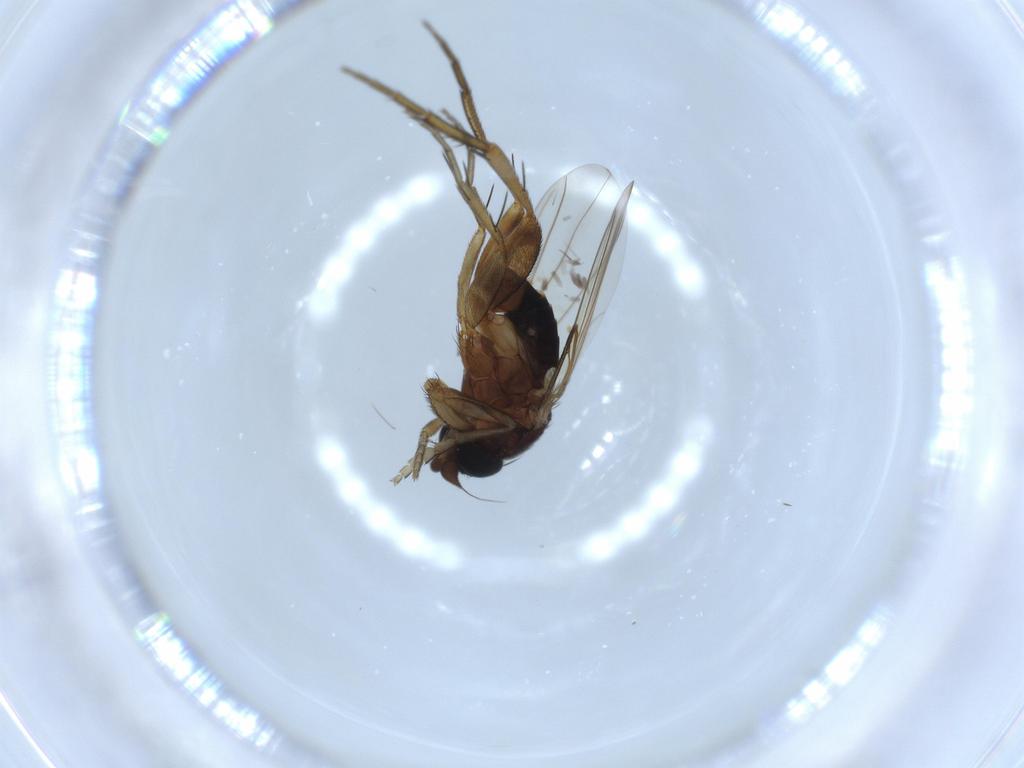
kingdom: Animalia
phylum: Arthropoda
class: Insecta
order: Diptera
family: Phoridae
